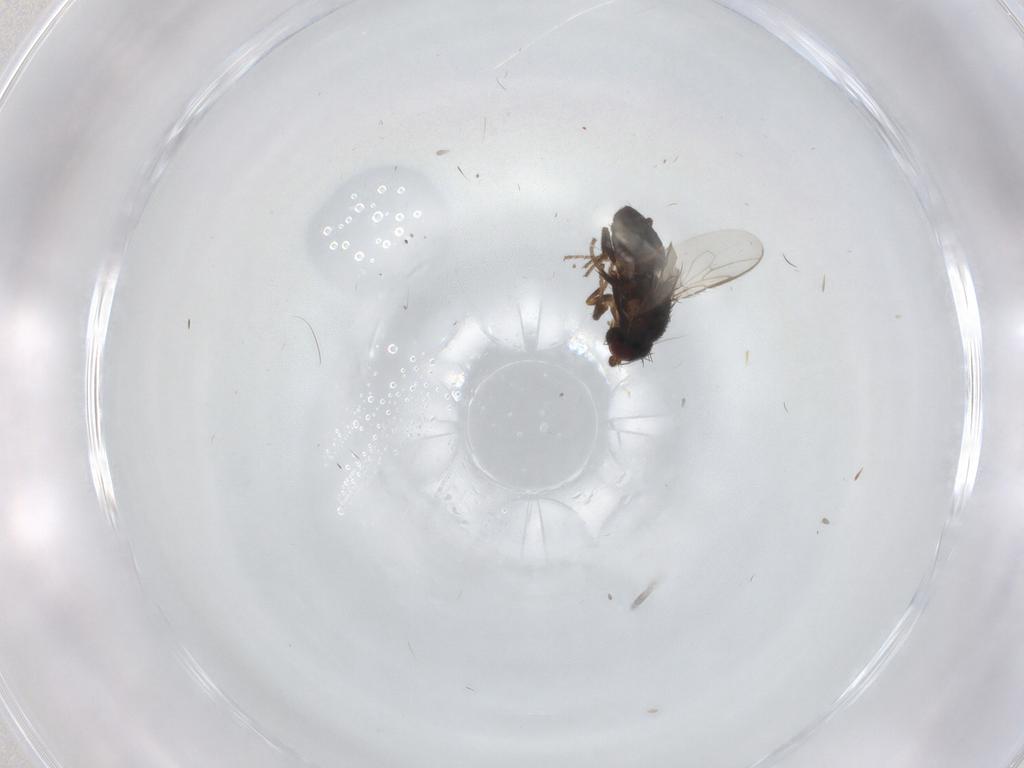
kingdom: Animalia
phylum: Arthropoda
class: Insecta
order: Diptera
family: Sphaeroceridae
